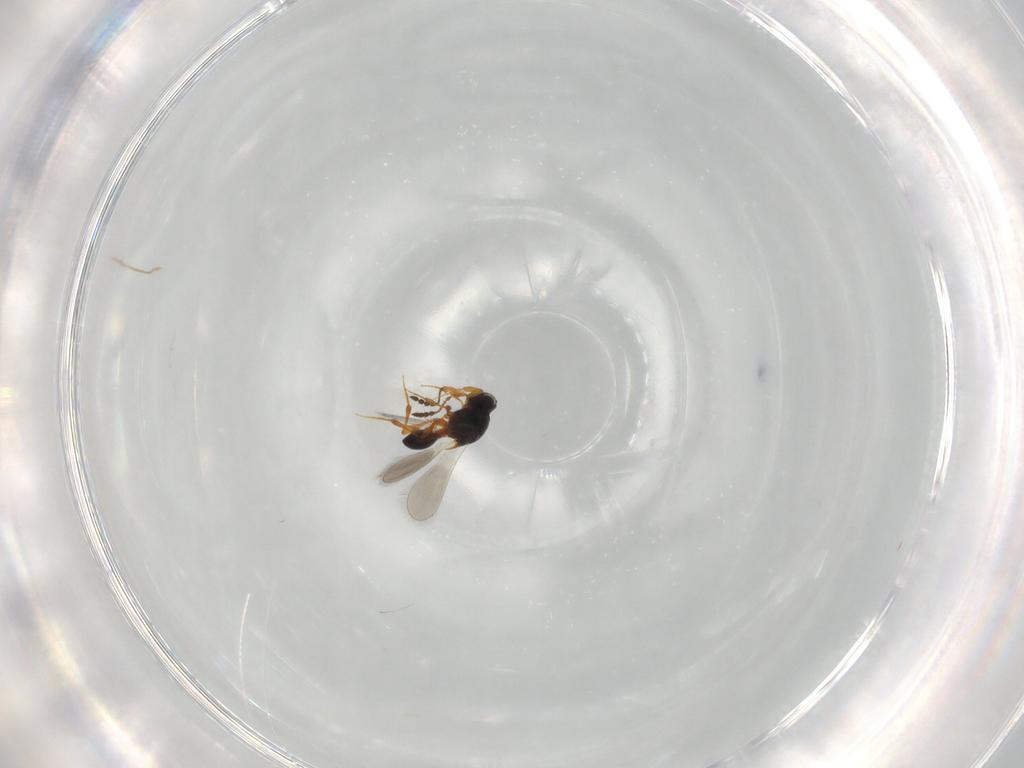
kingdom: Animalia
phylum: Arthropoda
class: Insecta
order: Hymenoptera
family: Platygastridae
